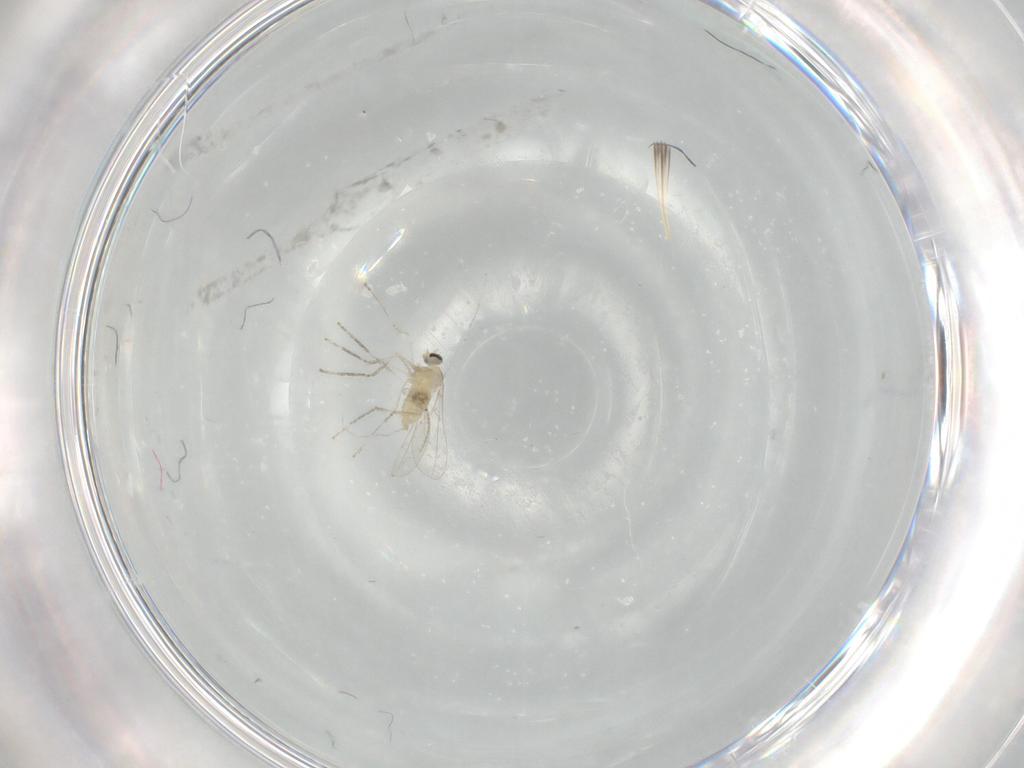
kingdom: Animalia
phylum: Arthropoda
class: Insecta
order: Diptera
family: Cecidomyiidae
